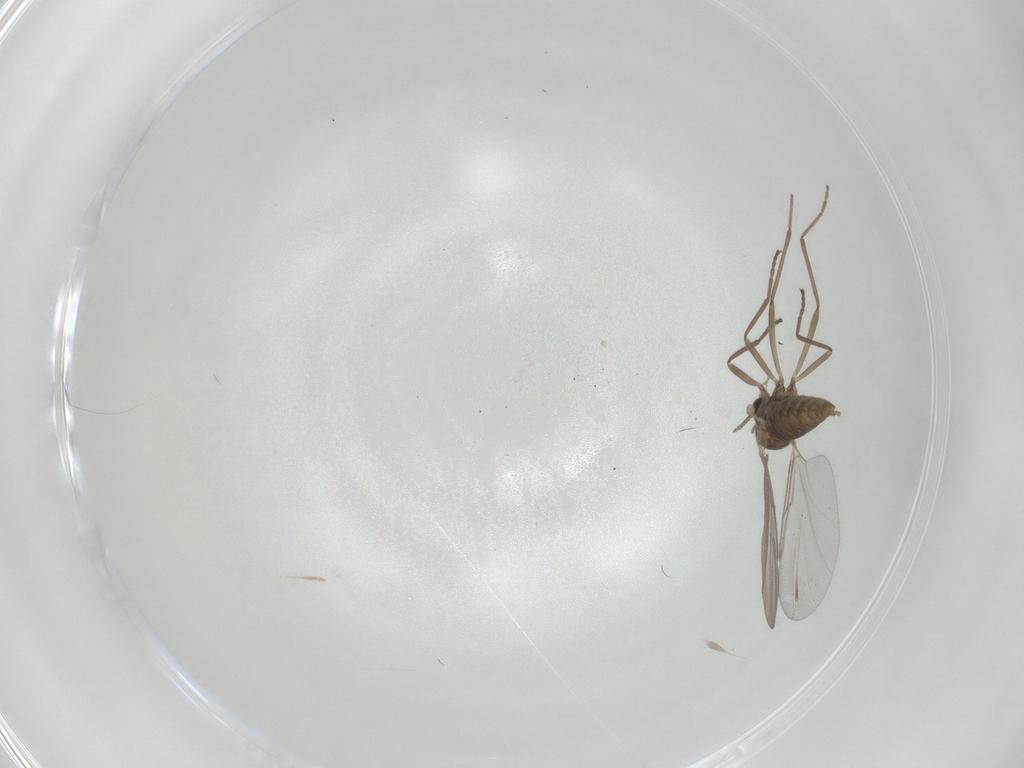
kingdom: Animalia
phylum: Arthropoda
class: Insecta
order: Diptera
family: Cecidomyiidae
